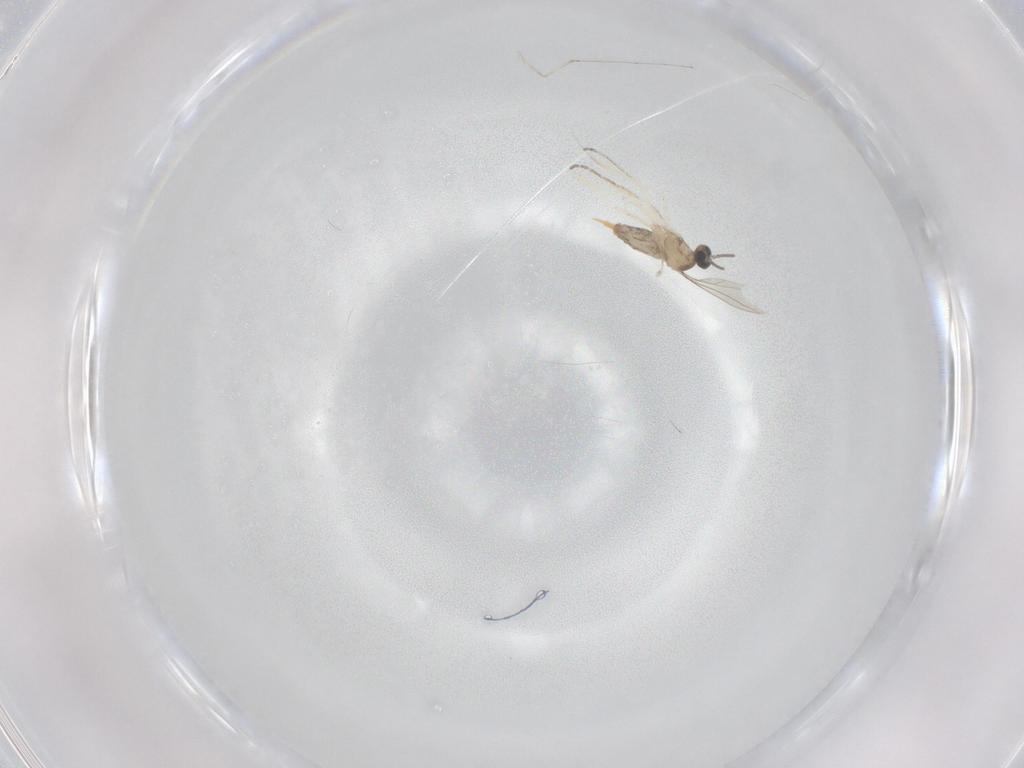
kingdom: Animalia
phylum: Arthropoda
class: Insecta
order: Diptera
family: Cecidomyiidae
